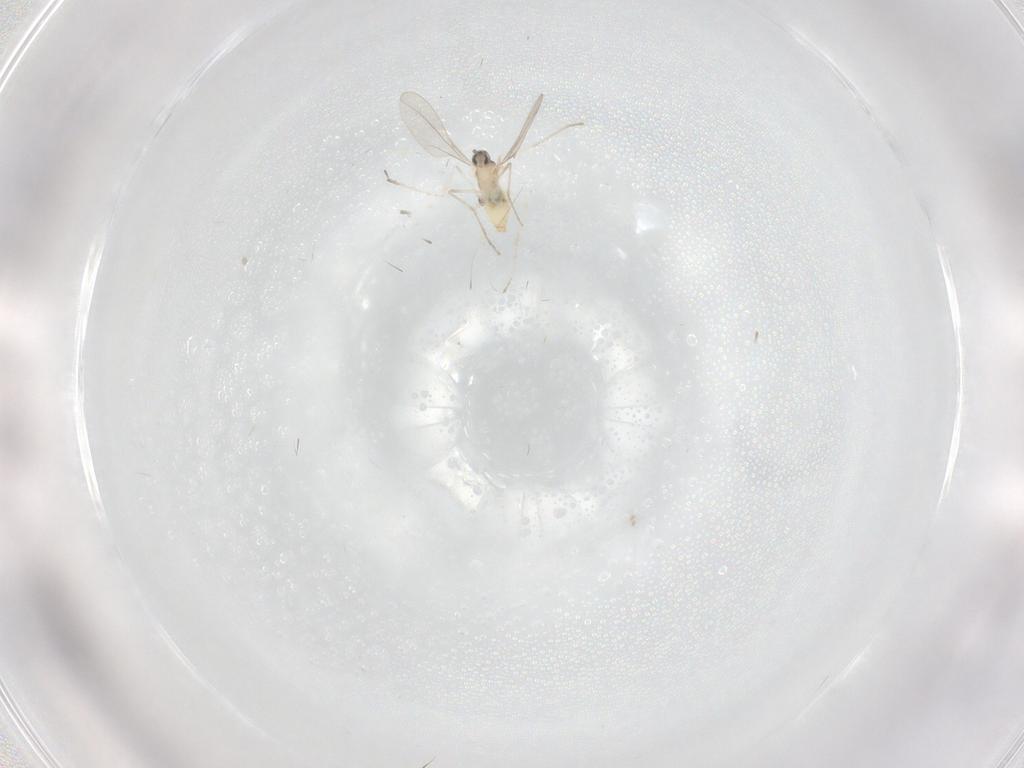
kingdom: Animalia
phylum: Arthropoda
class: Insecta
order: Diptera
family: Cecidomyiidae
